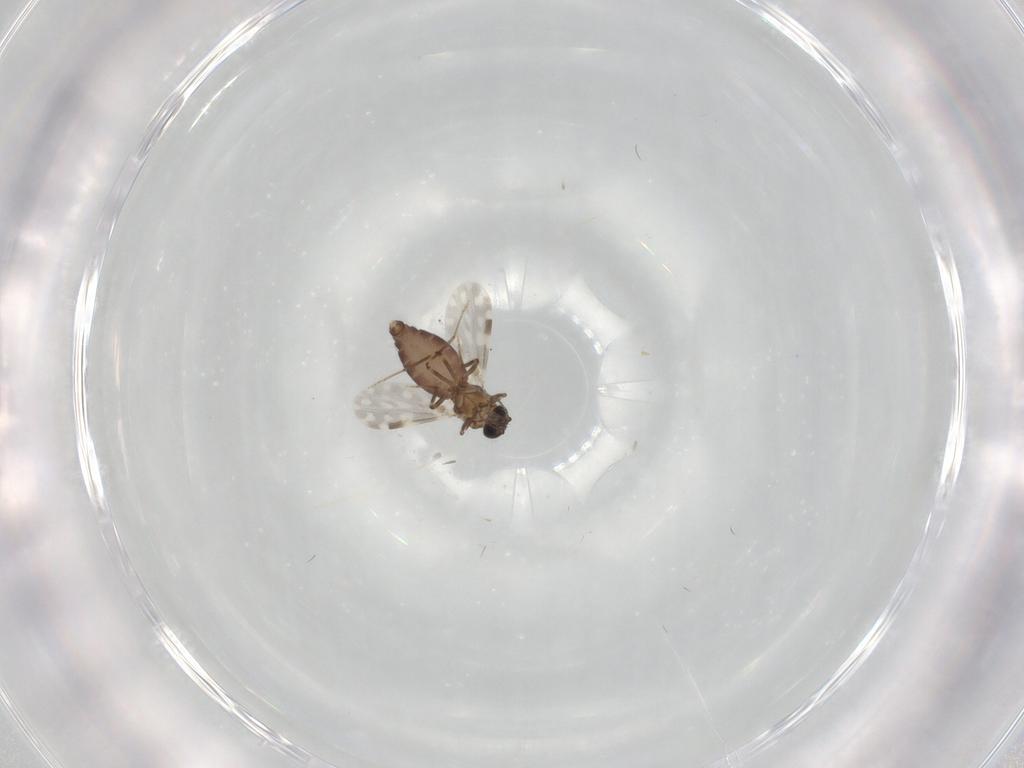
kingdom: Animalia
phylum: Arthropoda
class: Insecta
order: Diptera
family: Ceratopogonidae
